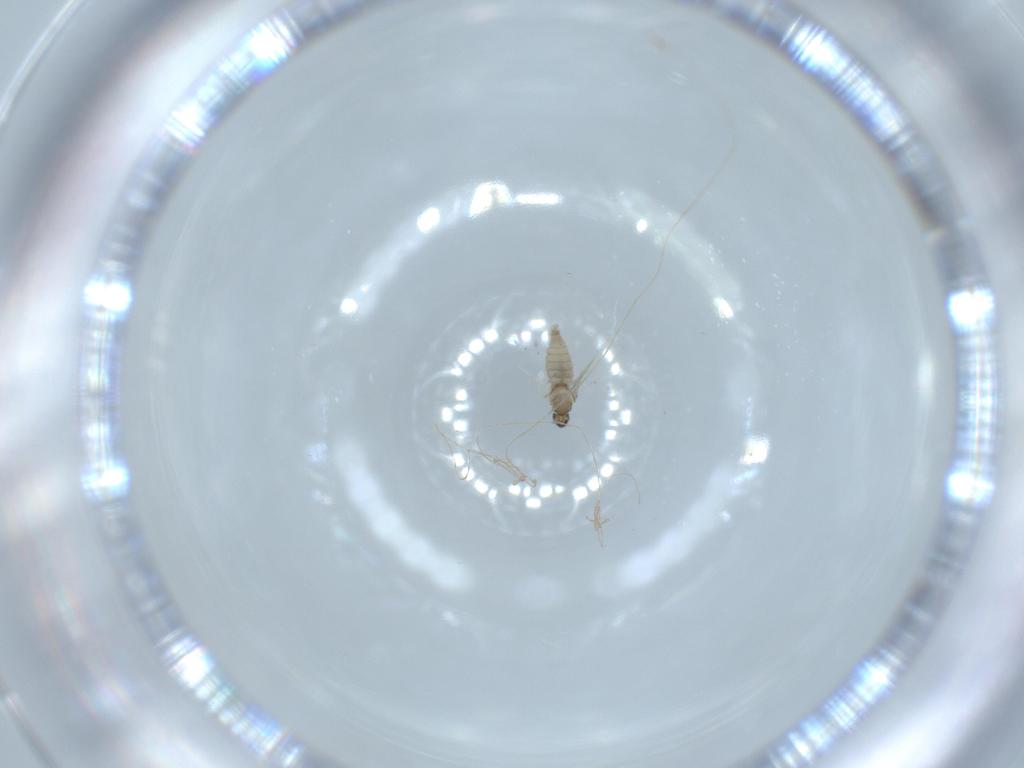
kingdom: Animalia
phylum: Arthropoda
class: Insecta
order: Diptera
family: Cecidomyiidae
